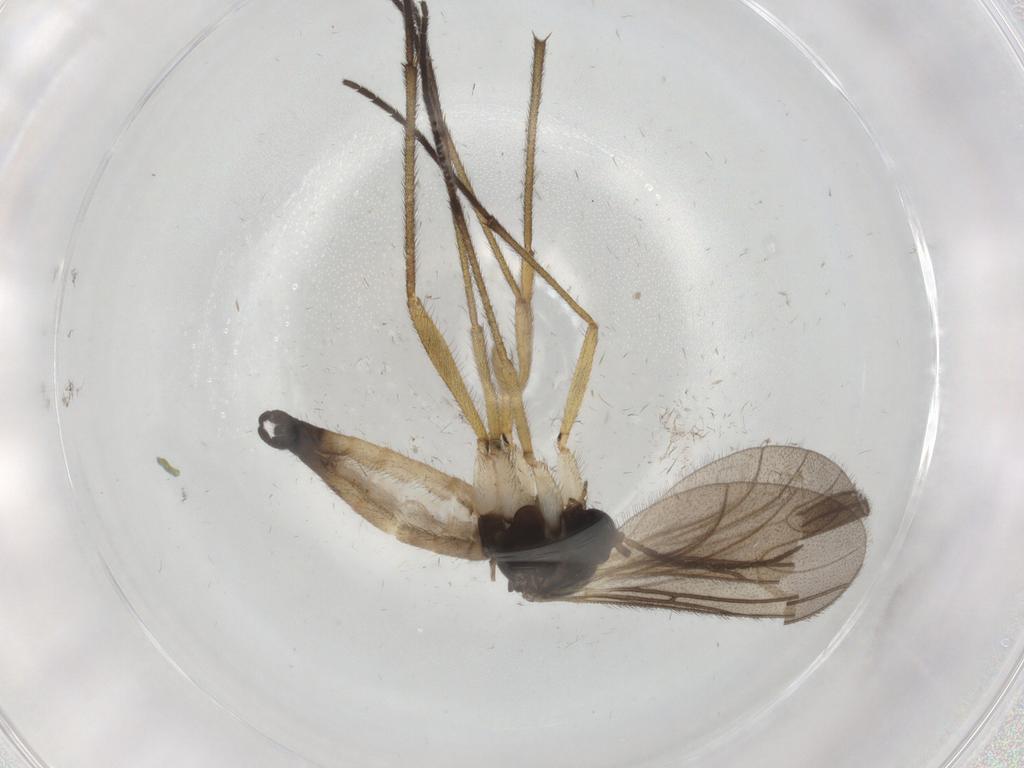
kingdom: Animalia
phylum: Arthropoda
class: Insecta
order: Diptera
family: Sciaridae
